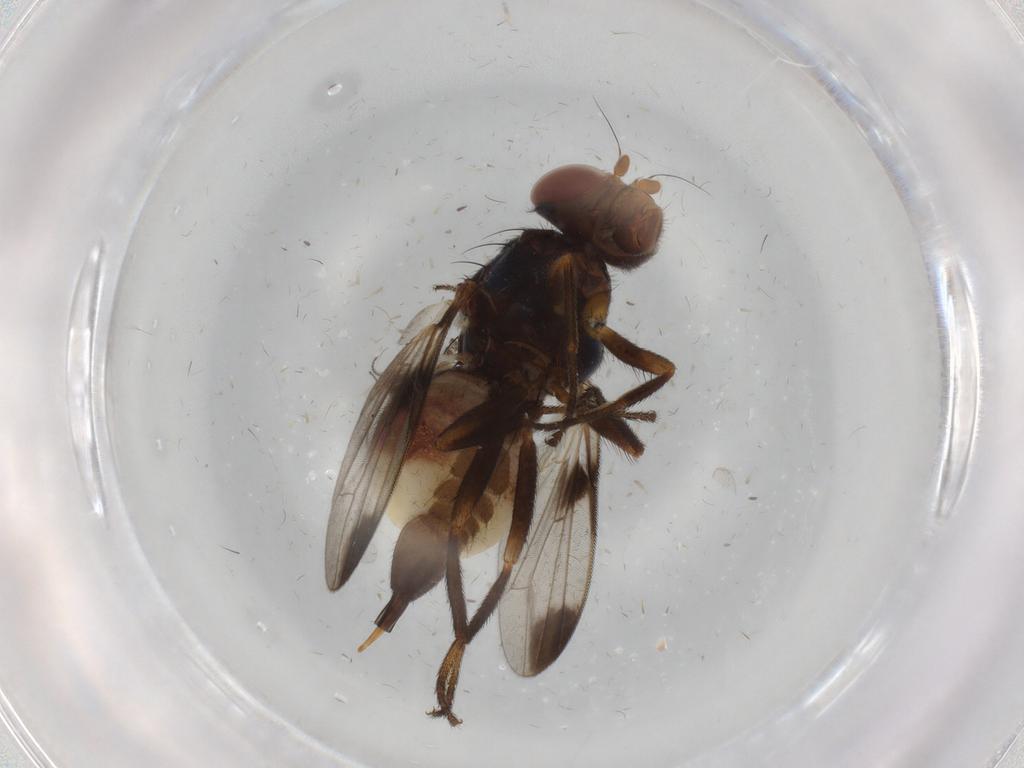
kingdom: Animalia
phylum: Arthropoda
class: Insecta
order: Diptera
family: Ulidiidae
